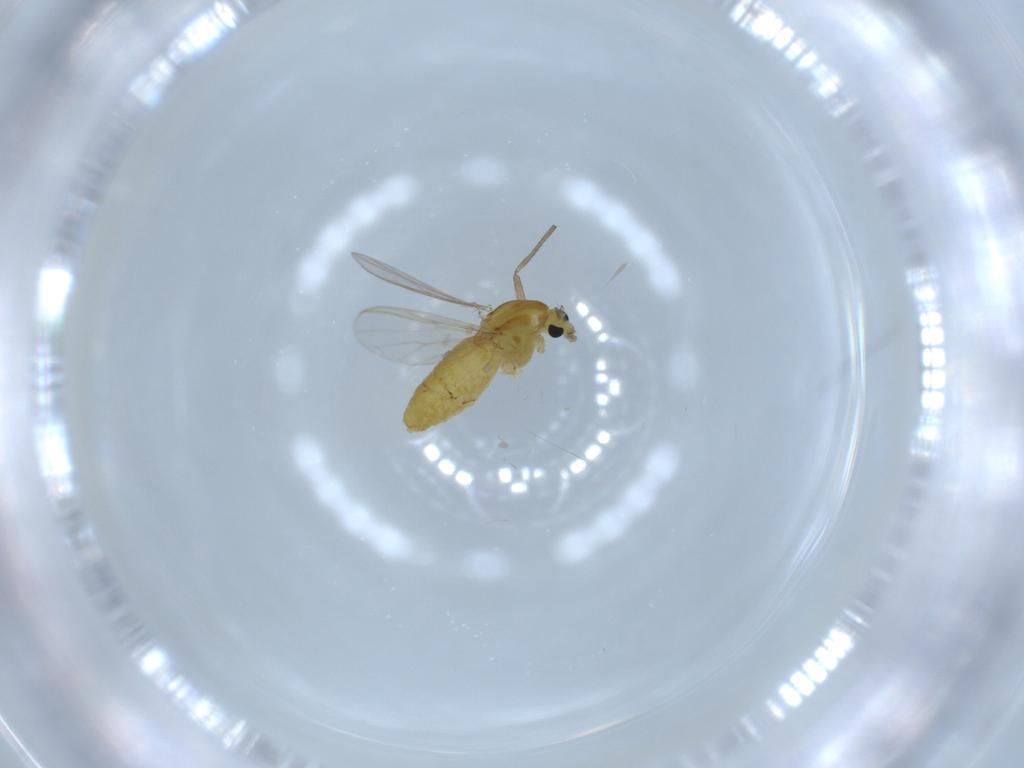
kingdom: Animalia
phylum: Arthropoda
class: Insecta
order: Diptera
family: Chironomidae
